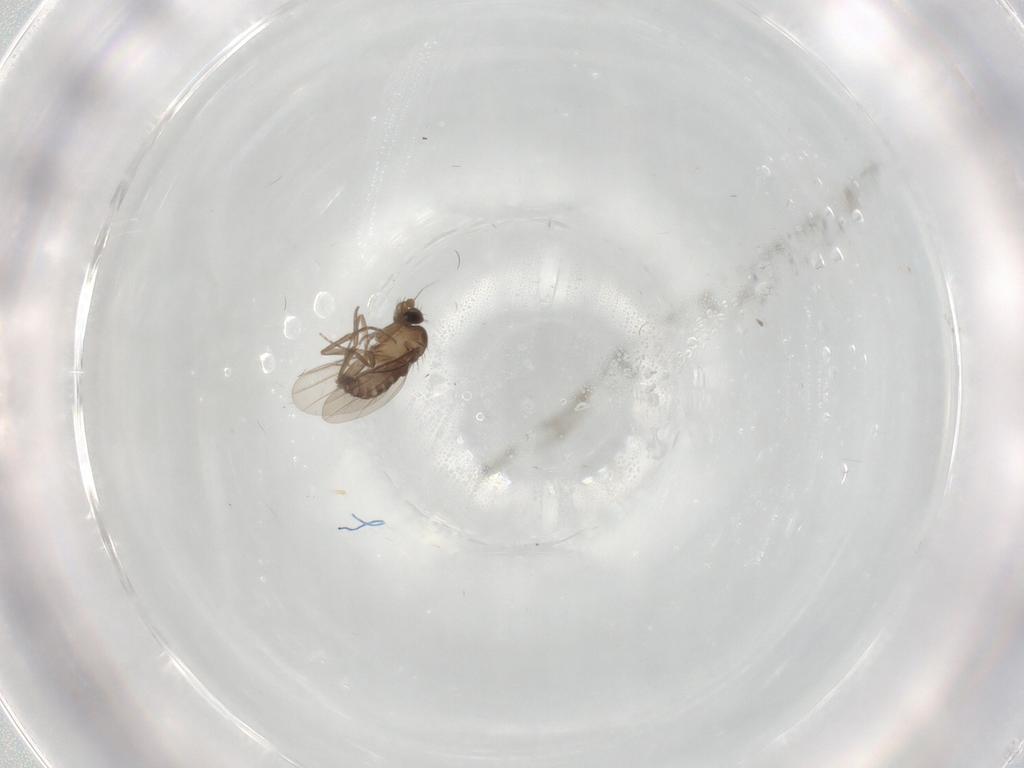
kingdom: Animalia
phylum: Arthropoda
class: Insecta
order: Diptera
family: Phoridae
